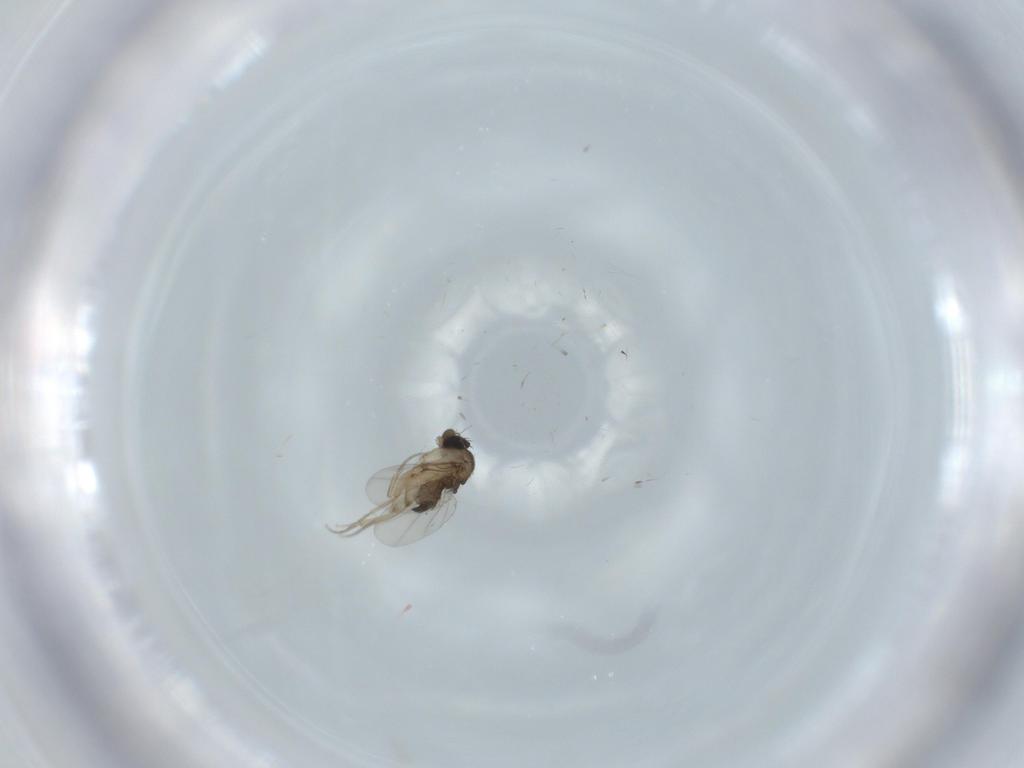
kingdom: Animalia
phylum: Arthropoda
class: Insecta
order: Diptera
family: Phoridae
